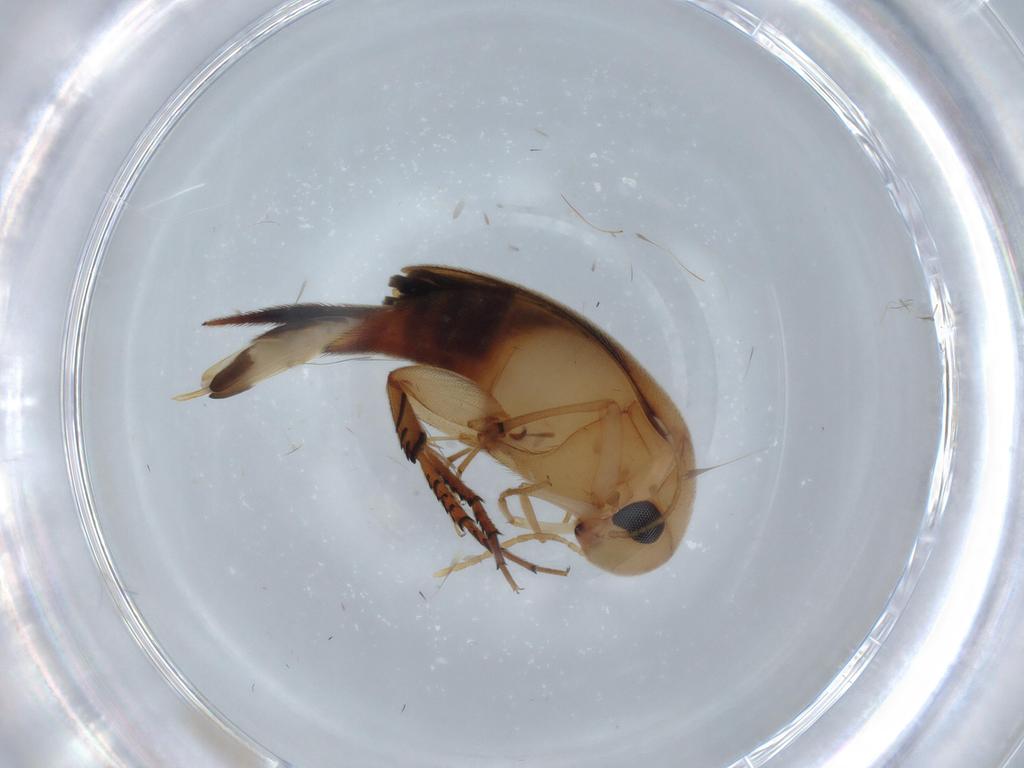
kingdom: Animalia
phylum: Arthropoda
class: Insecta
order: Coleoptera
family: Mordellidae
